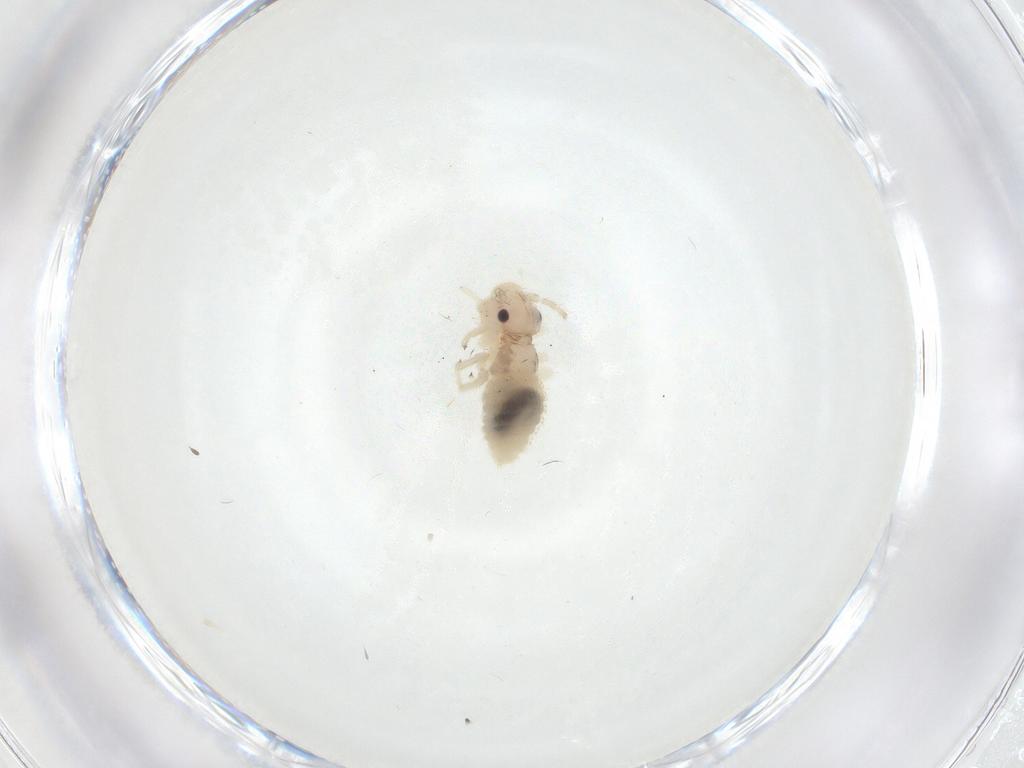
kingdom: Animalia
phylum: Arthropoda
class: Insecta
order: Psocodea
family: Amphipsocidae
